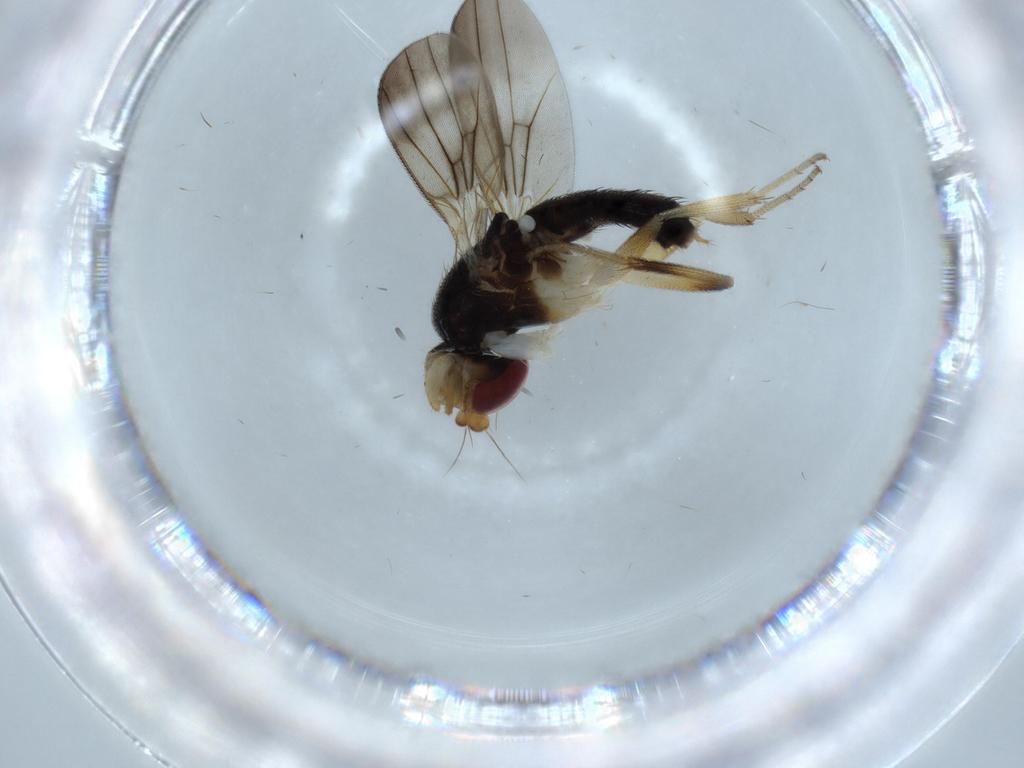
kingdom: Animalia
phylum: Arthropoda
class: Insecta
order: Diptera
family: Clusiidae
